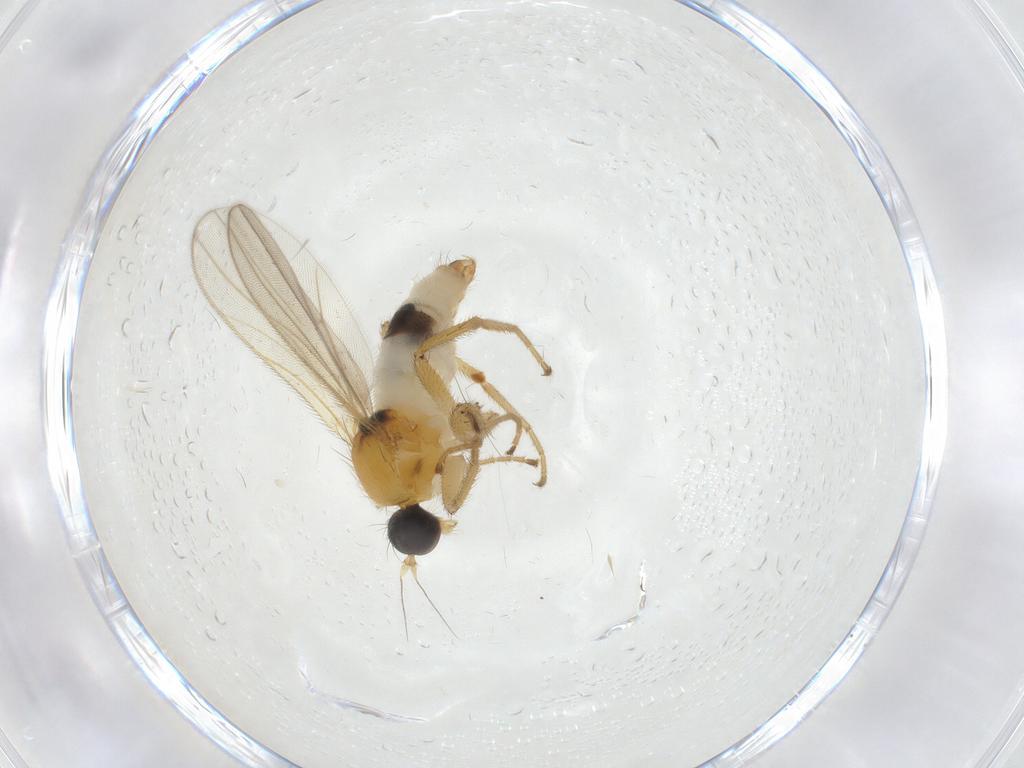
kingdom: Animalia
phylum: Arthropoda
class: Insecta
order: Diptera
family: Hybotidae
